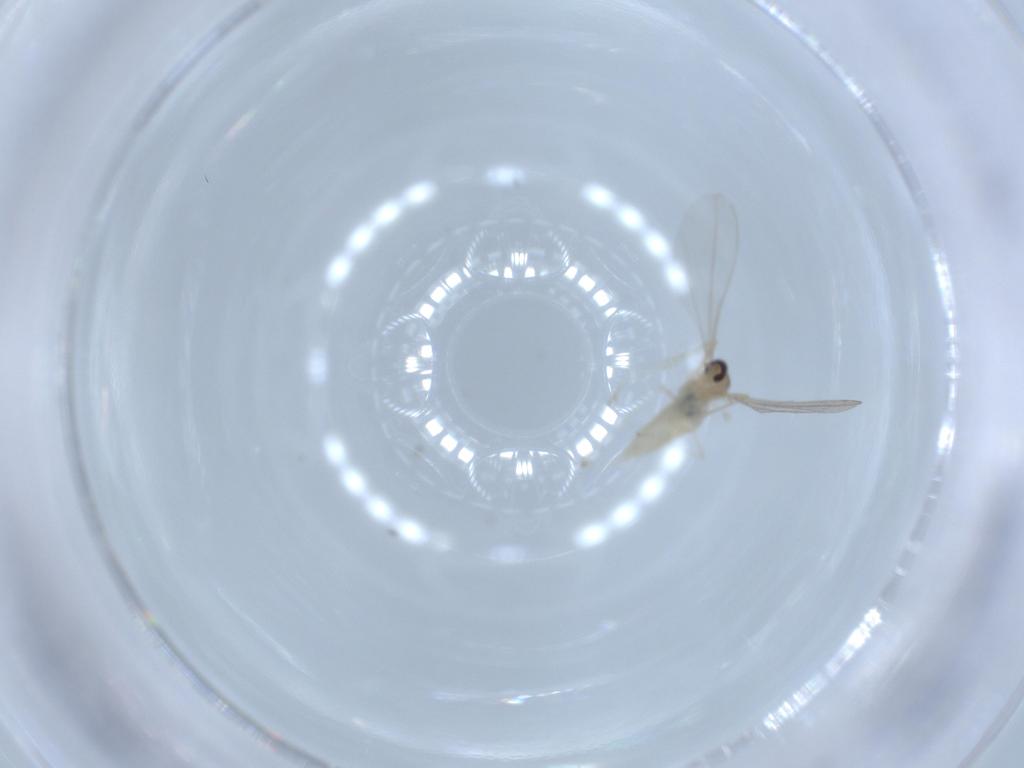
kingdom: Animalia
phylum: Arthropoda
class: Insecta
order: Diptera
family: Cecidomyiidae
